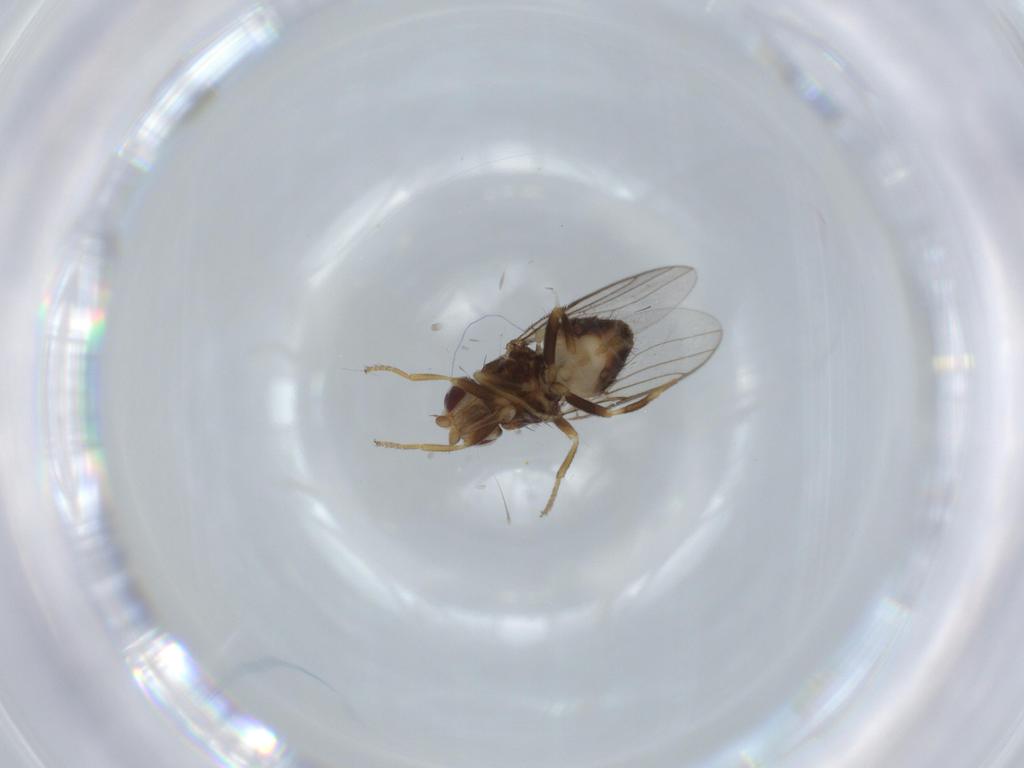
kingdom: Animalia
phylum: Arthropoda
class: Insecta
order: Diptera
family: Chloropidae
